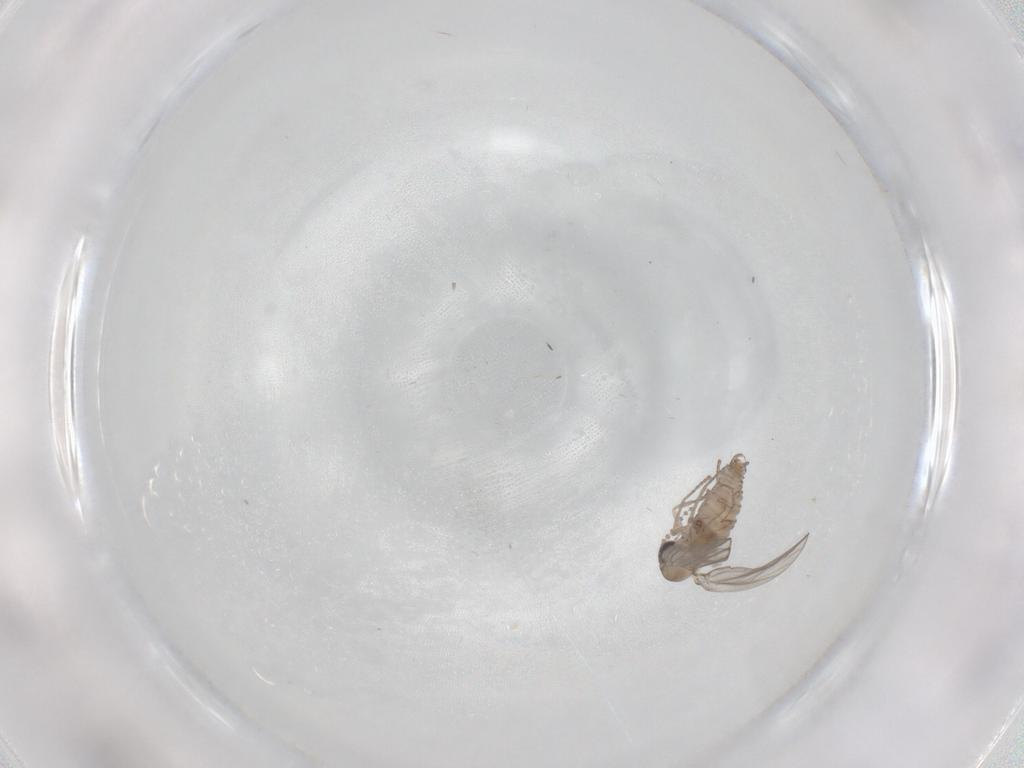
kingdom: Animalia
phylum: Arthropoda
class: Insecta
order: Diptera
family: Psychodidae
